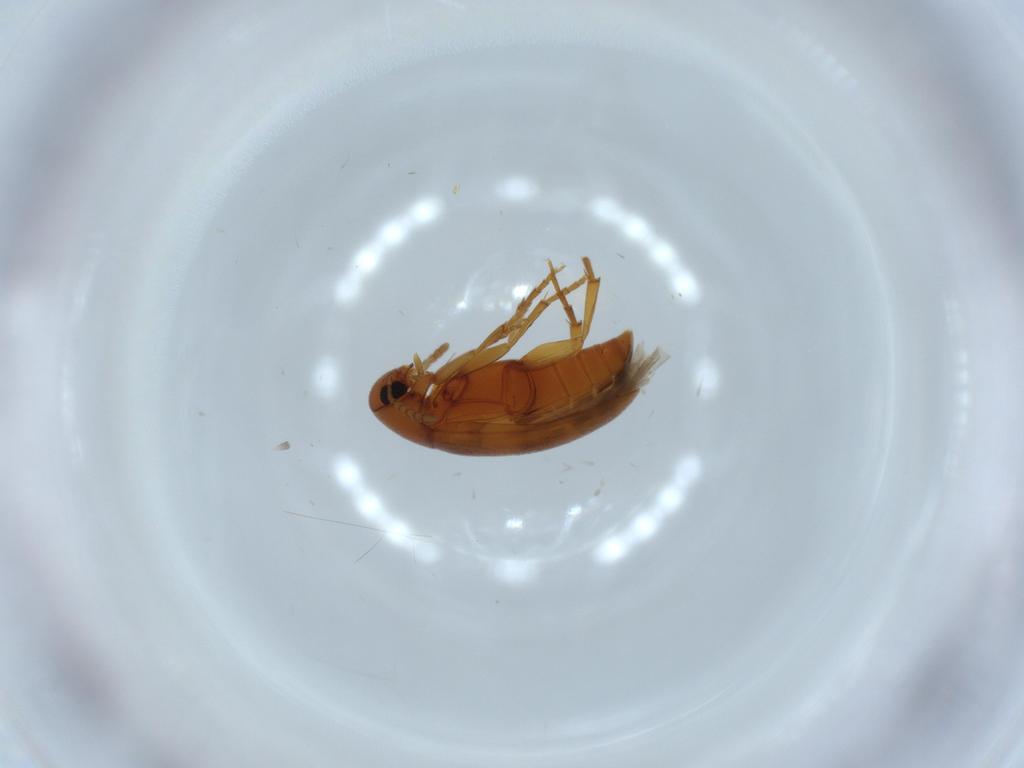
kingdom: Animalia
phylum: Arthropoda
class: Insecta
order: Coleoptera
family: Scraptiidae
